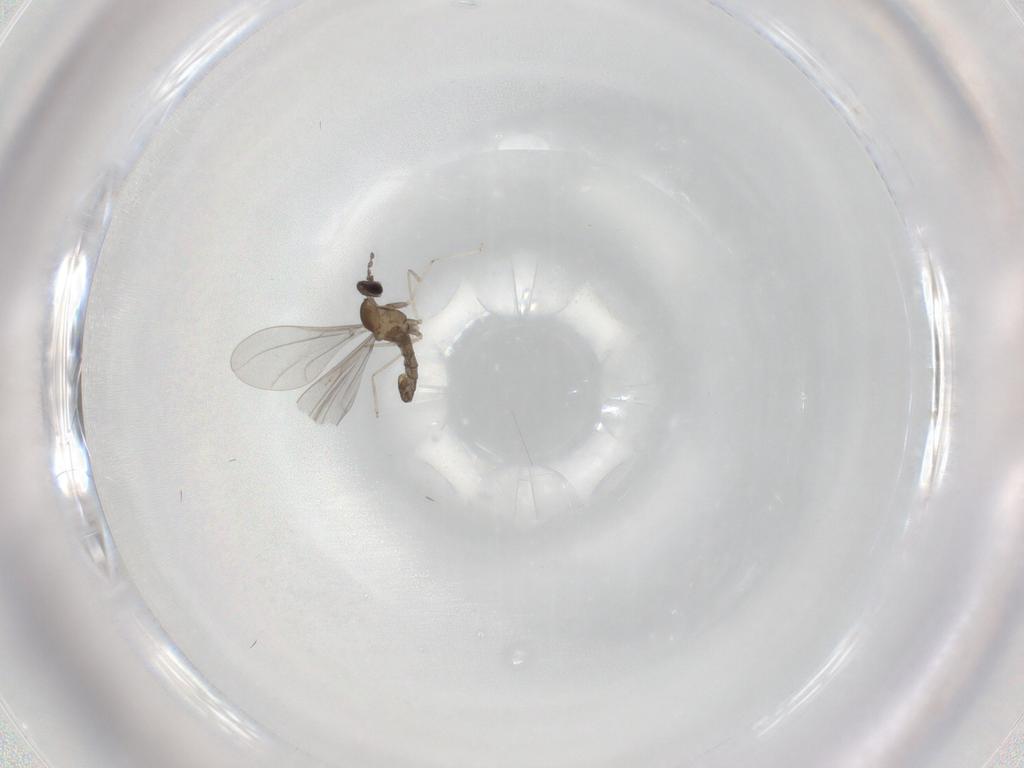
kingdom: Animalia
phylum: Arthropoda
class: Insecta
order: Diptera
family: Cecidomyiidae
